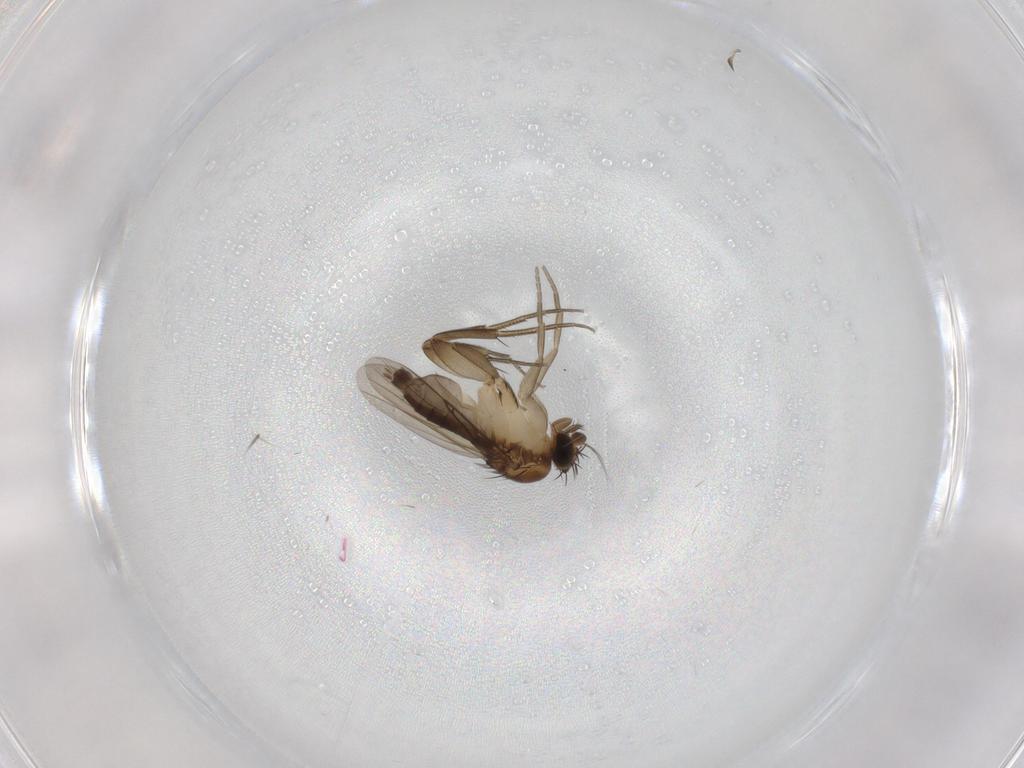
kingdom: Animalia
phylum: Arthropoda
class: Insecta
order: Diptera
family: Phoridae
